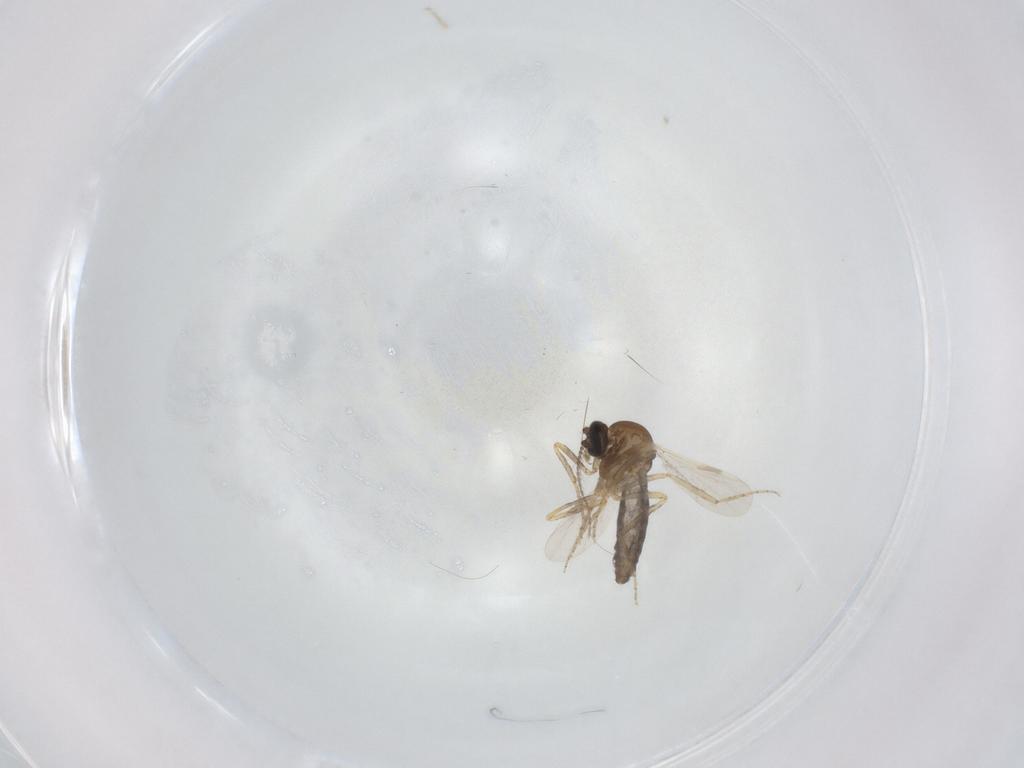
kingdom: Animalia
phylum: Arthropoda
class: Insecta
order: Diptera
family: Ceratopogonidae
